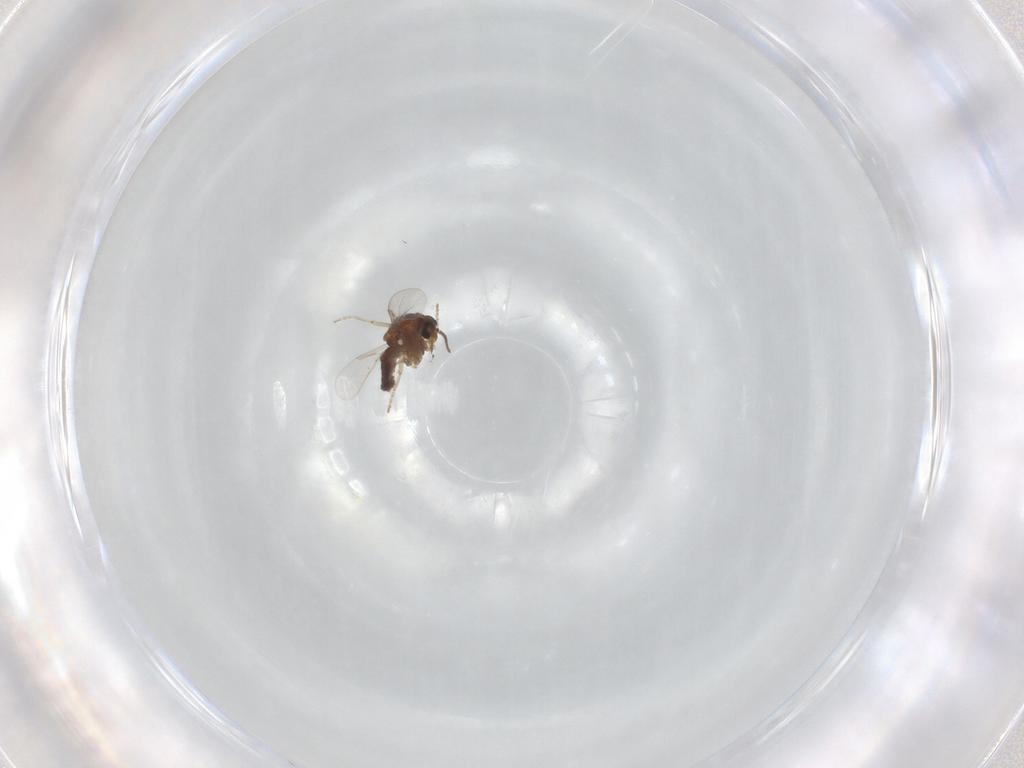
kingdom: Animalia
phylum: Arthropoda
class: Insecta
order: Diptera
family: Ceratopogonidae
